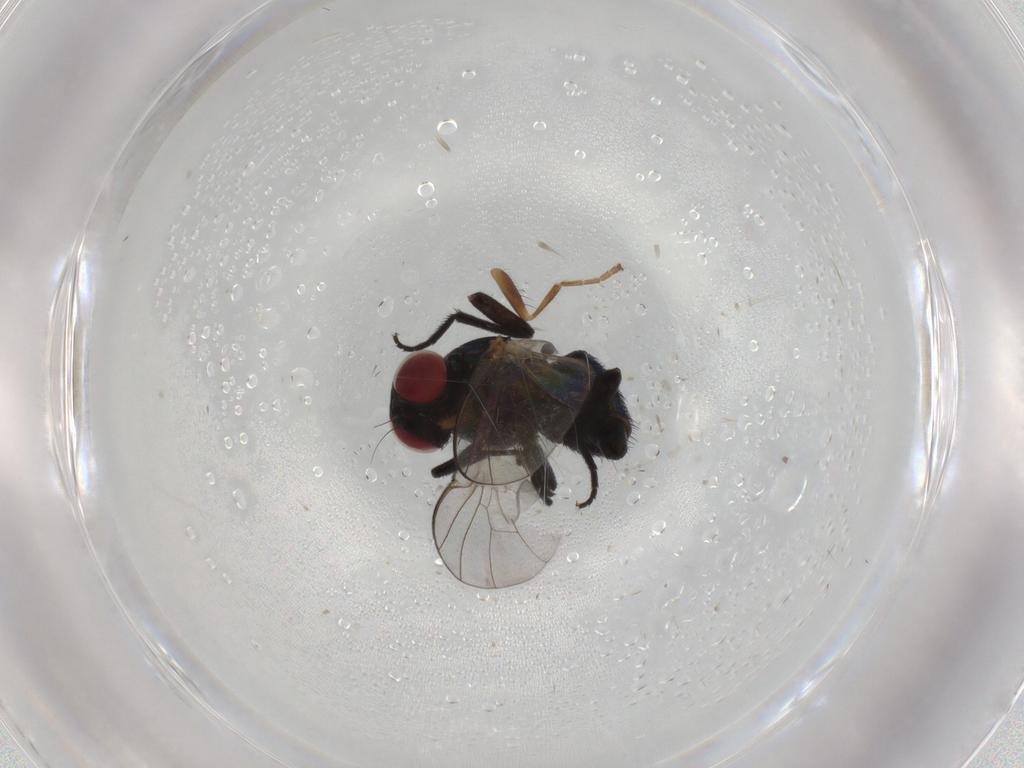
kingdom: Animalia
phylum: Arthropoda
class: Insecta
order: Diptera
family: Agromyzidae
